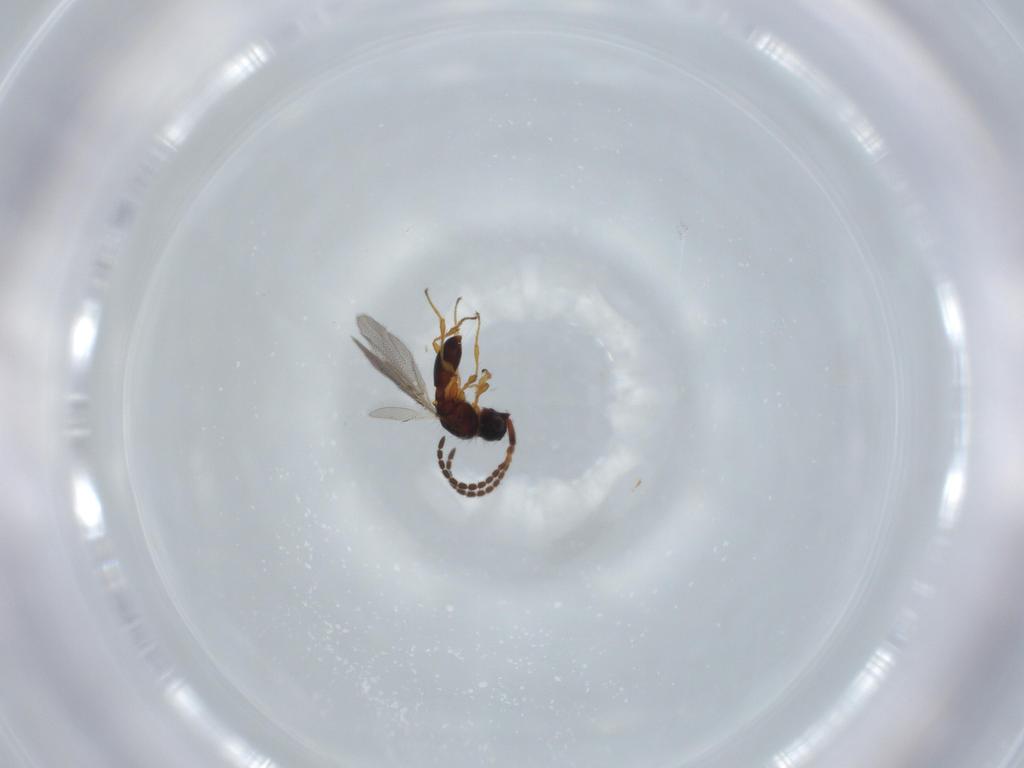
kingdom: Animalia
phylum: Arthropoda
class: Insecta
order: Hymenoptera
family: Diapriidae
